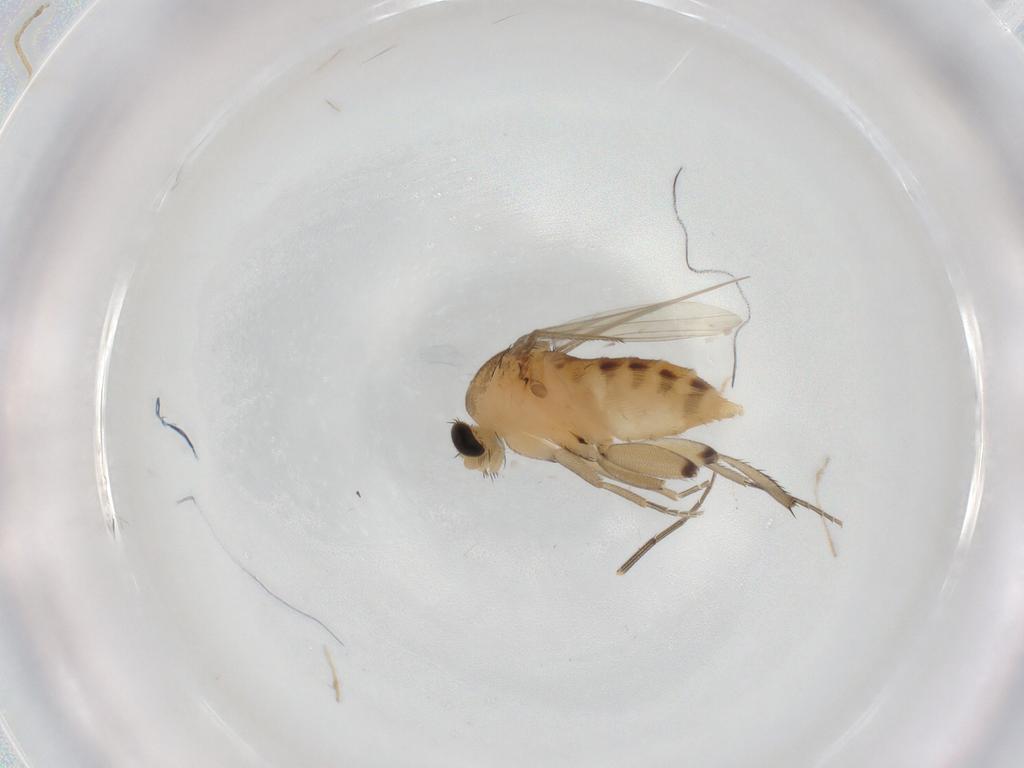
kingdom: Animalia
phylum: Arthropoda
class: Insecta
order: Diptera
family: Phoridae
